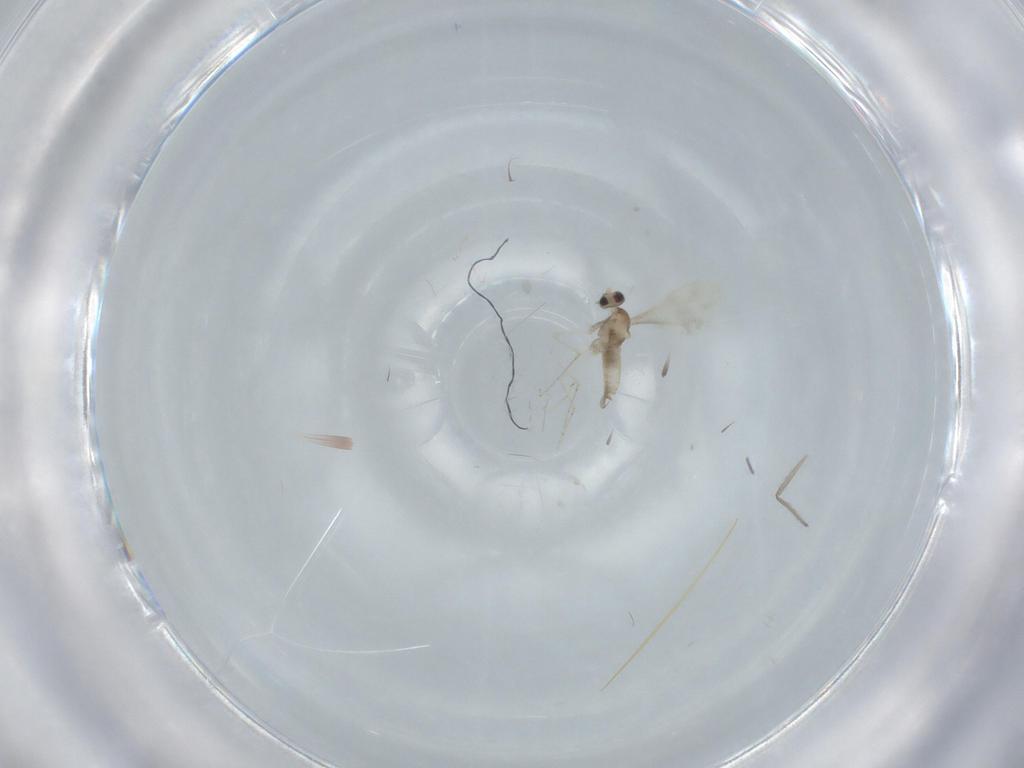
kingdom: Animalia
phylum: Arthropoda
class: Insecta
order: Diptera
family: Chironomidae
